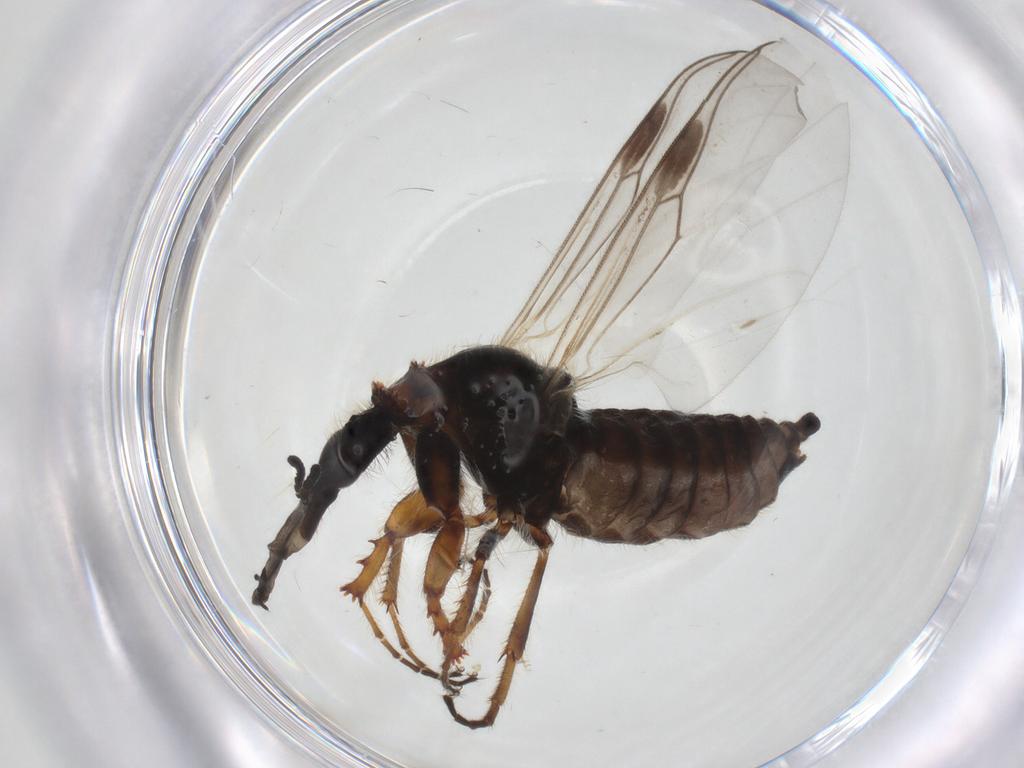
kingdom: Animalia
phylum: Arthropoda
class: Insecta
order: Diptera
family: Bibionidae
